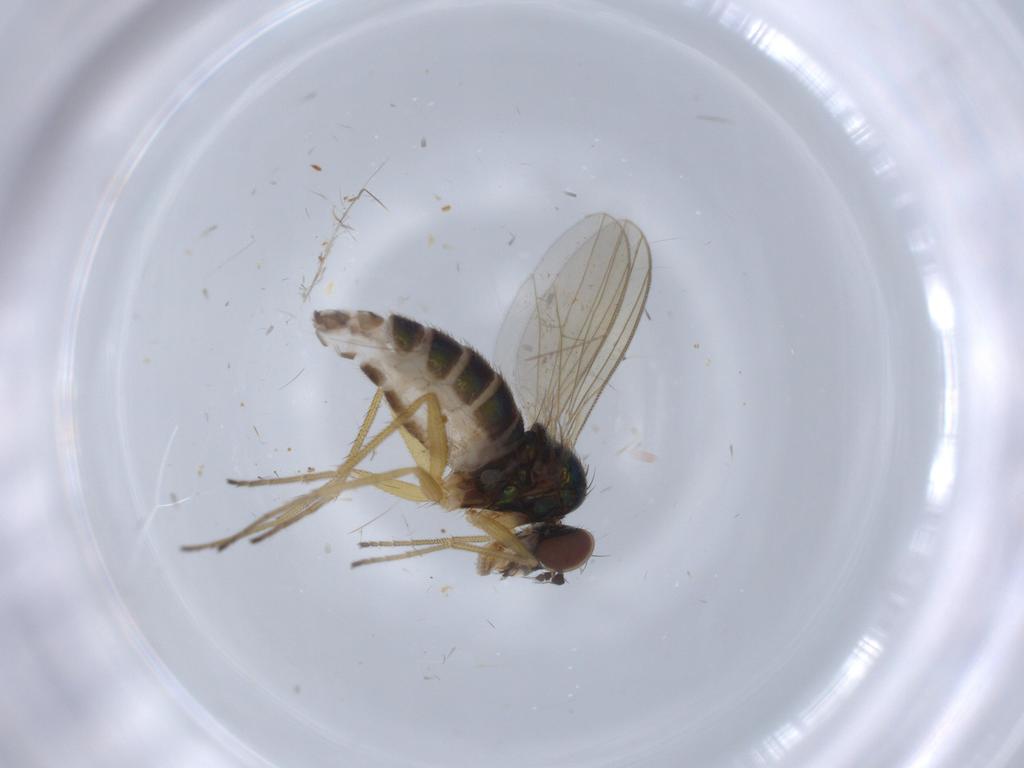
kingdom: Animalia
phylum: Arthropoda
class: Insecta
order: Diptera
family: Dolichopodidae
